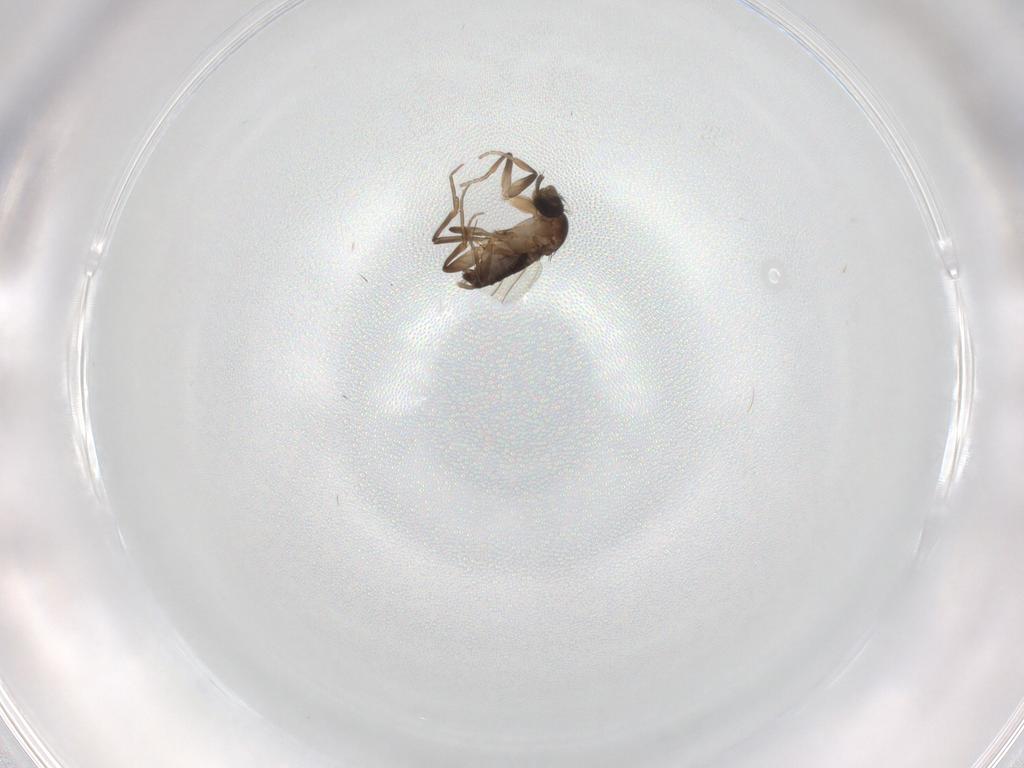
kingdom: Animalia
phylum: Arthropoda
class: Insecta
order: Diptera
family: Phoridae
